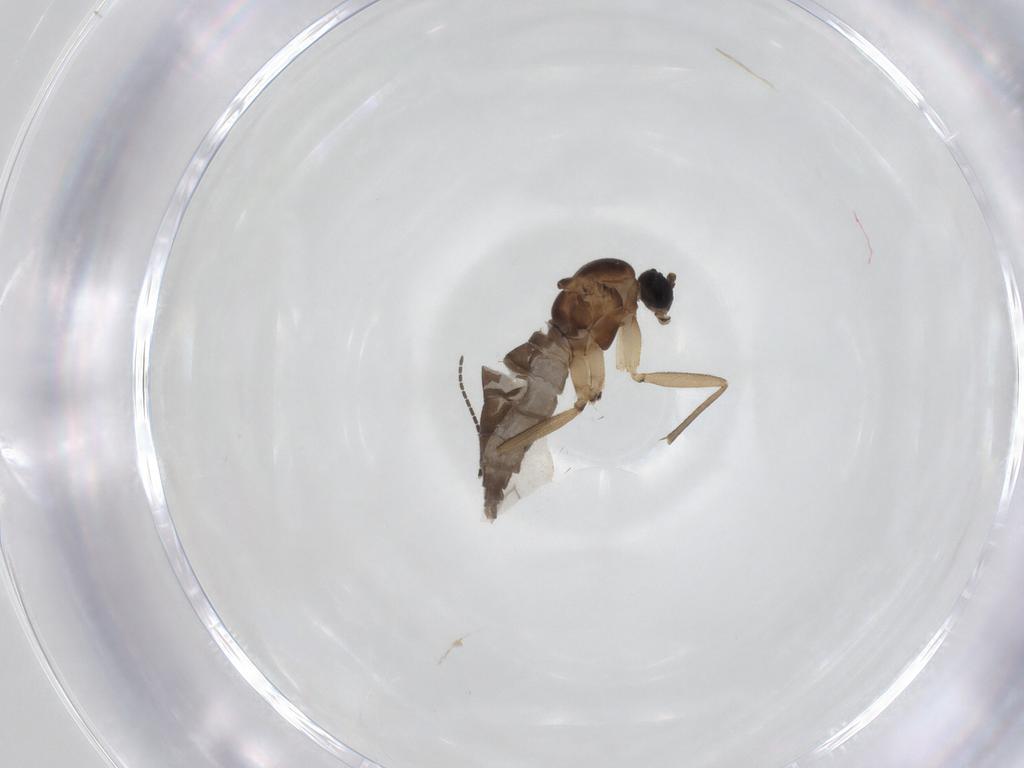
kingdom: Animalia
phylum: Arthropoda
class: Insecta
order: Diptera
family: Sciaridae
